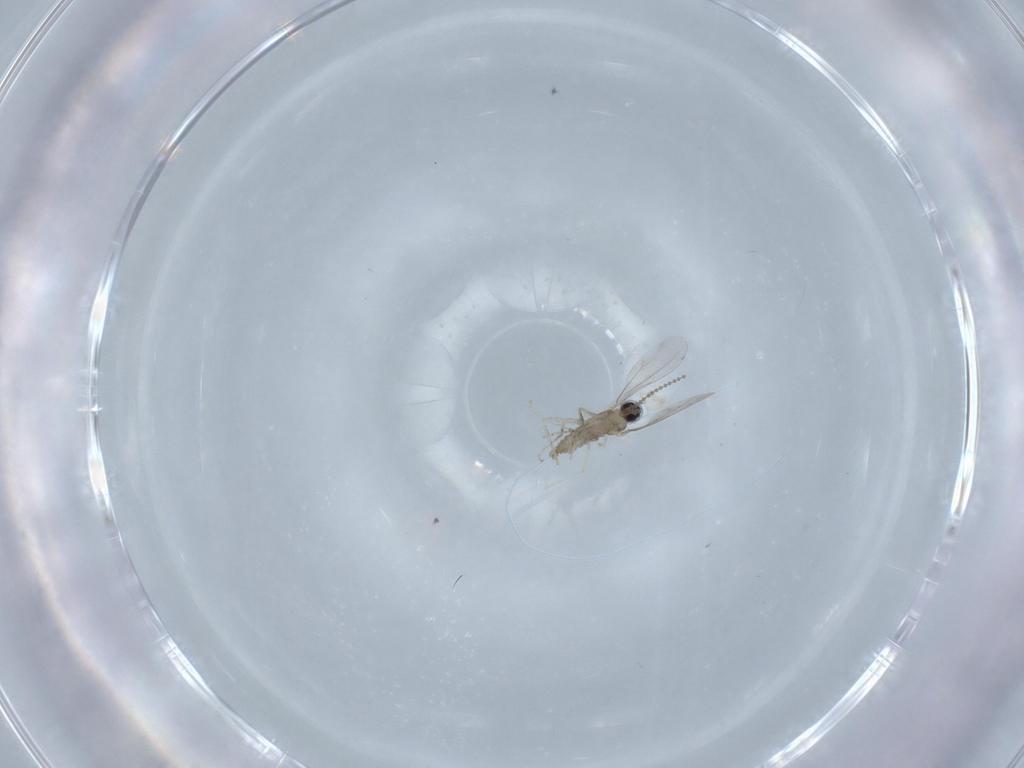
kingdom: Animalia
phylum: Arthropoda
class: Insecta
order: Diptera
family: Cecidomyiidae
